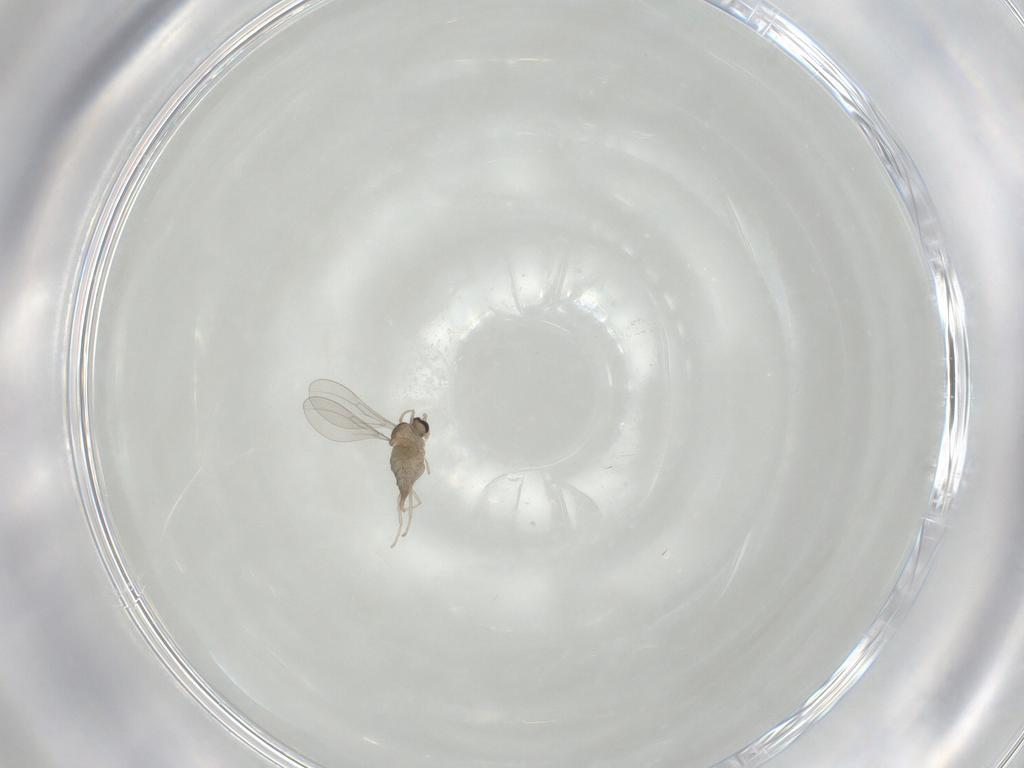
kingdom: Animalia
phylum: Arthropoda
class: Insecta
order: Diptera
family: Cecidomyiidae
